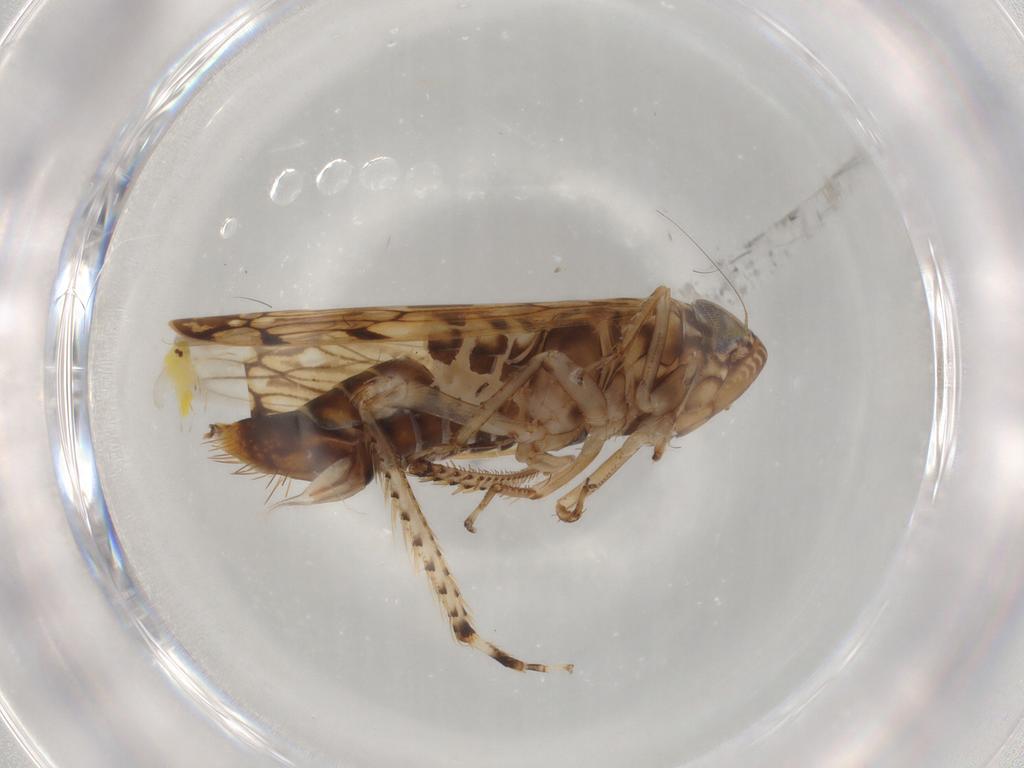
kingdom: Animalia
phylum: Arthropoda
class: Insecta
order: Hemiptera
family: Cicadellidae
